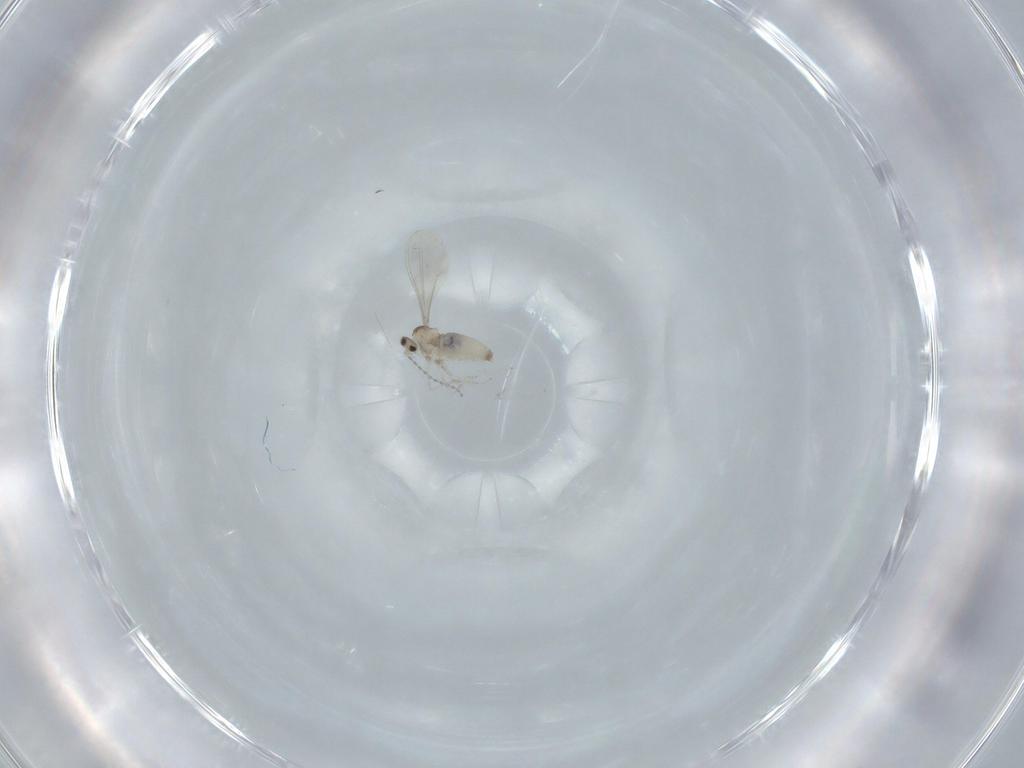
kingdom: Animalia
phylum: Arthropoda
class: Insecta
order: Diptera
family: Cecidomyiidae
